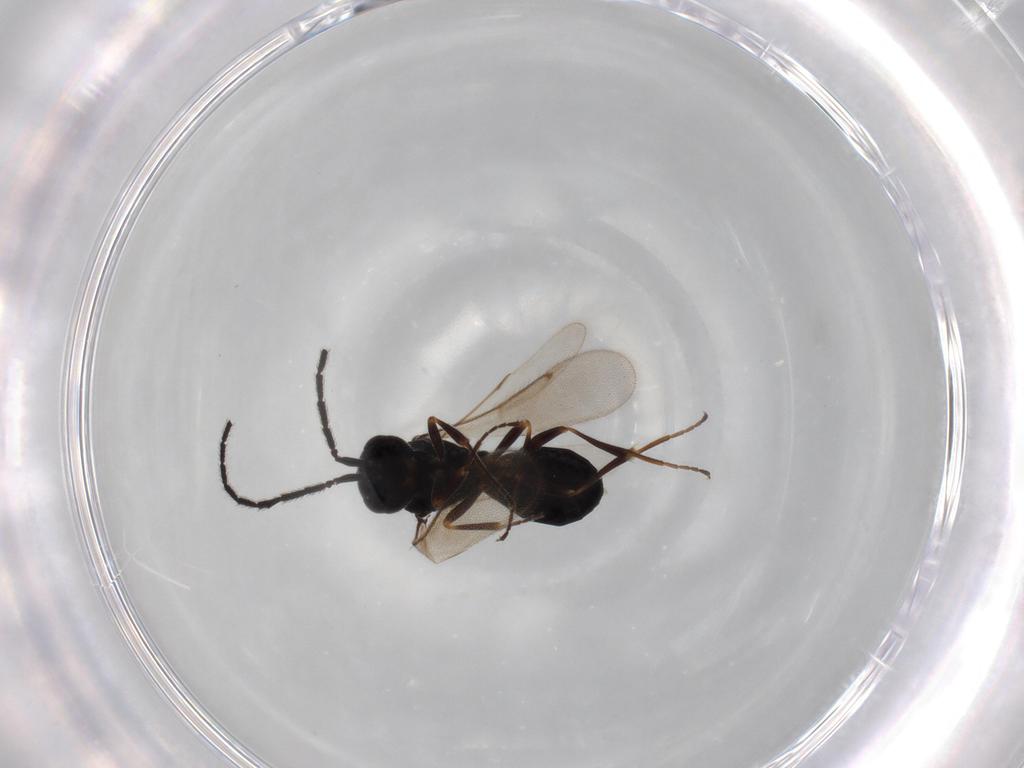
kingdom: Animalia
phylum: Arthropoda
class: Insecta
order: Hymenoptera
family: Scelionidae
